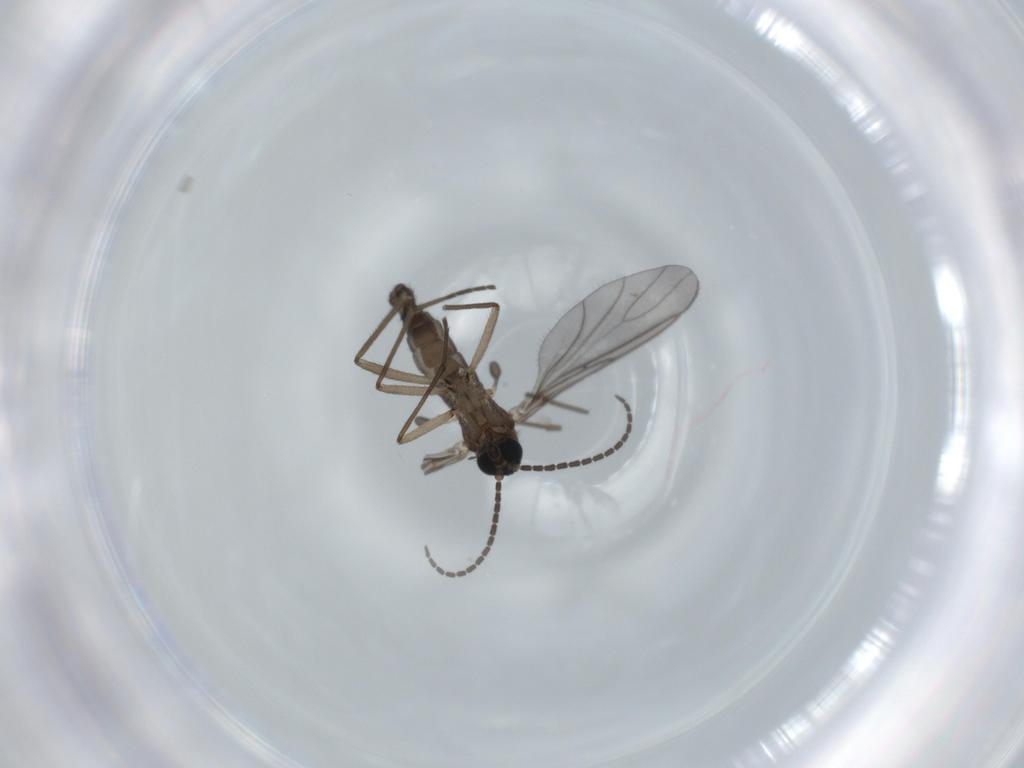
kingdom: Animalia
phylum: Arthropoda
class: Insecta
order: Diptera
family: Sciaridae
